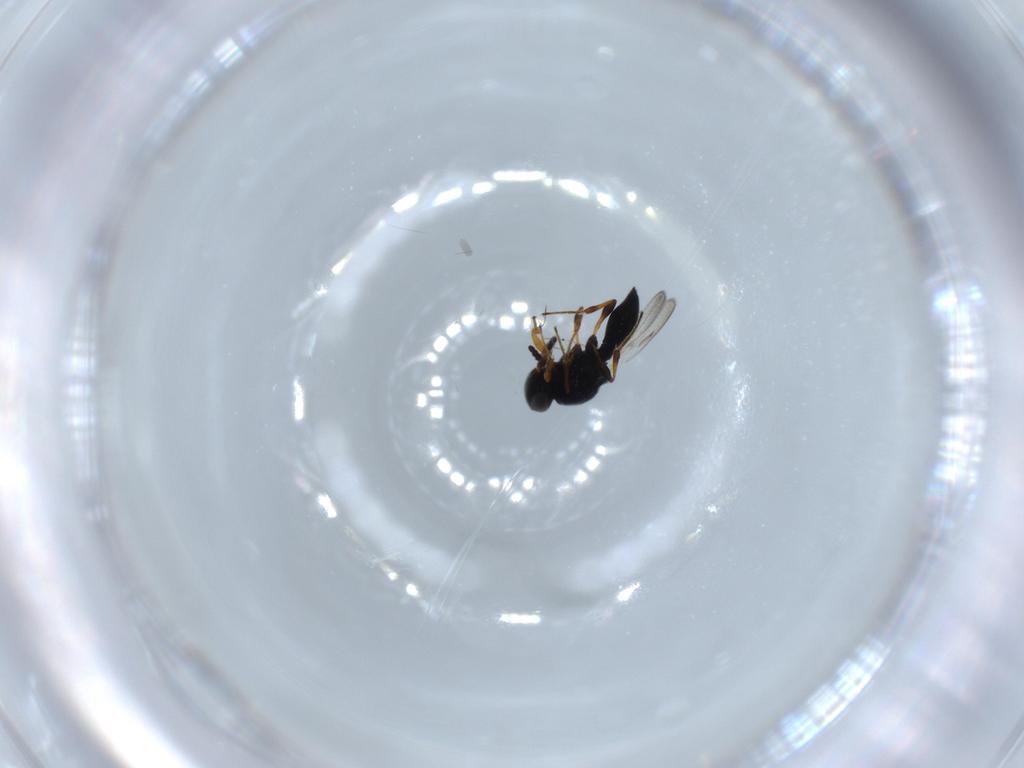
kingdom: Animalia
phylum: Arthropoda
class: Insecta
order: Hymenoptera
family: Platygastridae
